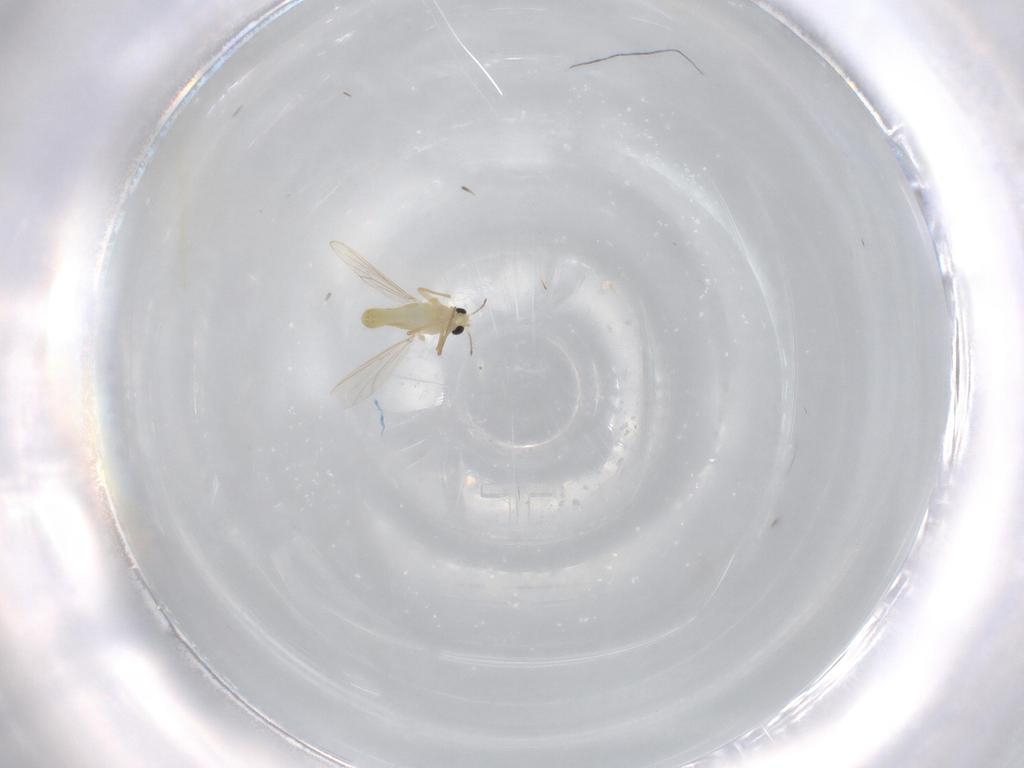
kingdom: Animalia
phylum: Arthropoda
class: Insecta
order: Diptera
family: Chironomidae
